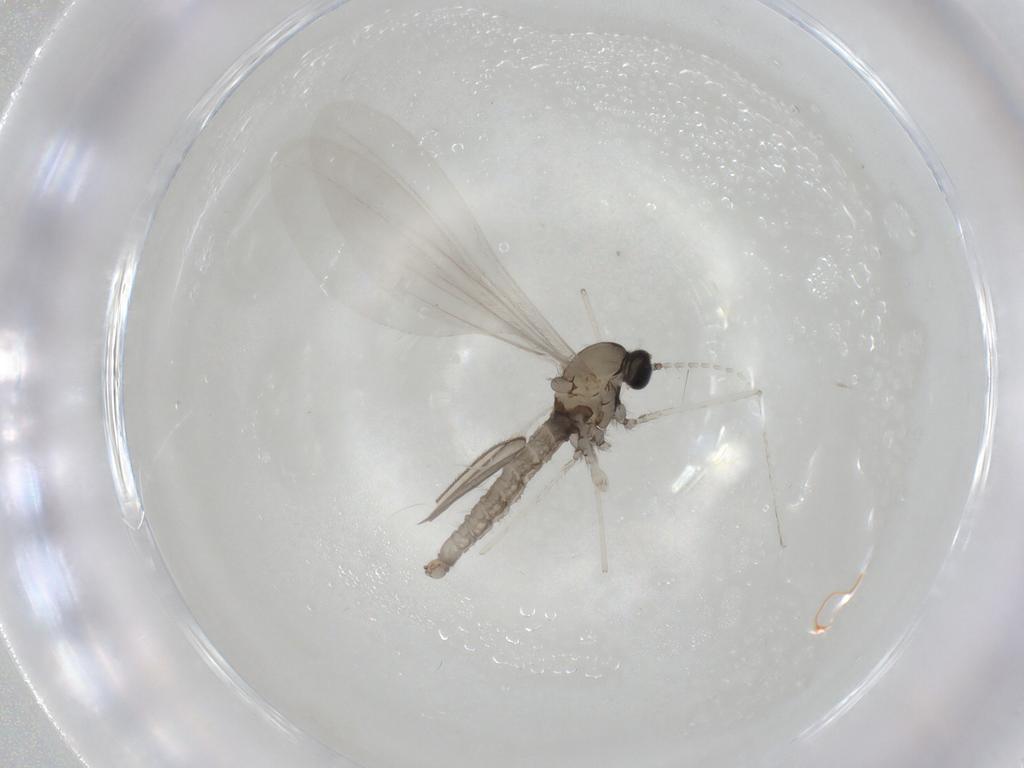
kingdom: Animalia
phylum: Arthropoda
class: Insecta
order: Diptera
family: Cecidomyiidae
